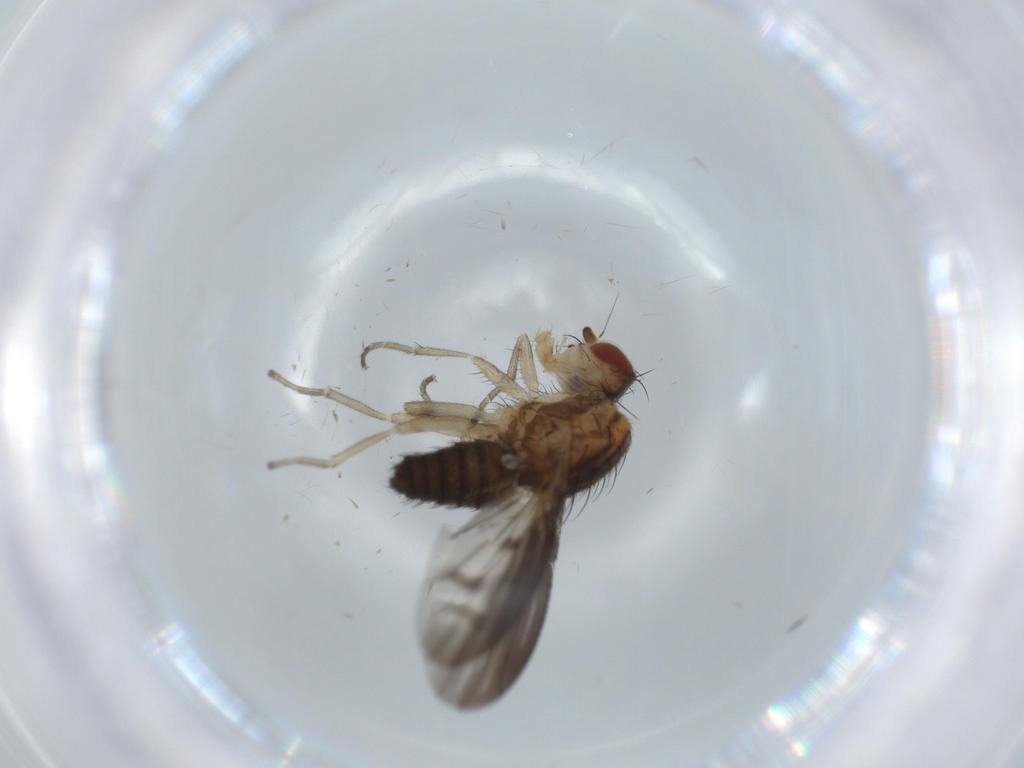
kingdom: Animalia
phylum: Arthropoda
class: Insecta
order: Diptera
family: Heleomyzidae
